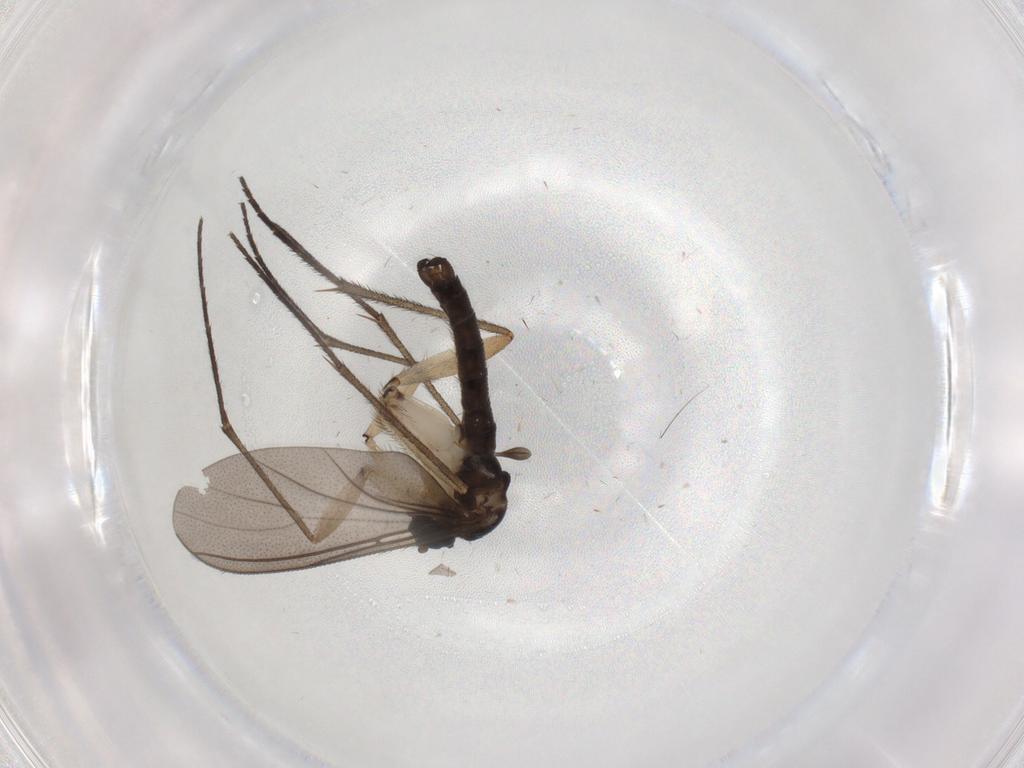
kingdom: Animalia
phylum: Arthropoda
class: Insecta
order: Diptera
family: Sciaridae
